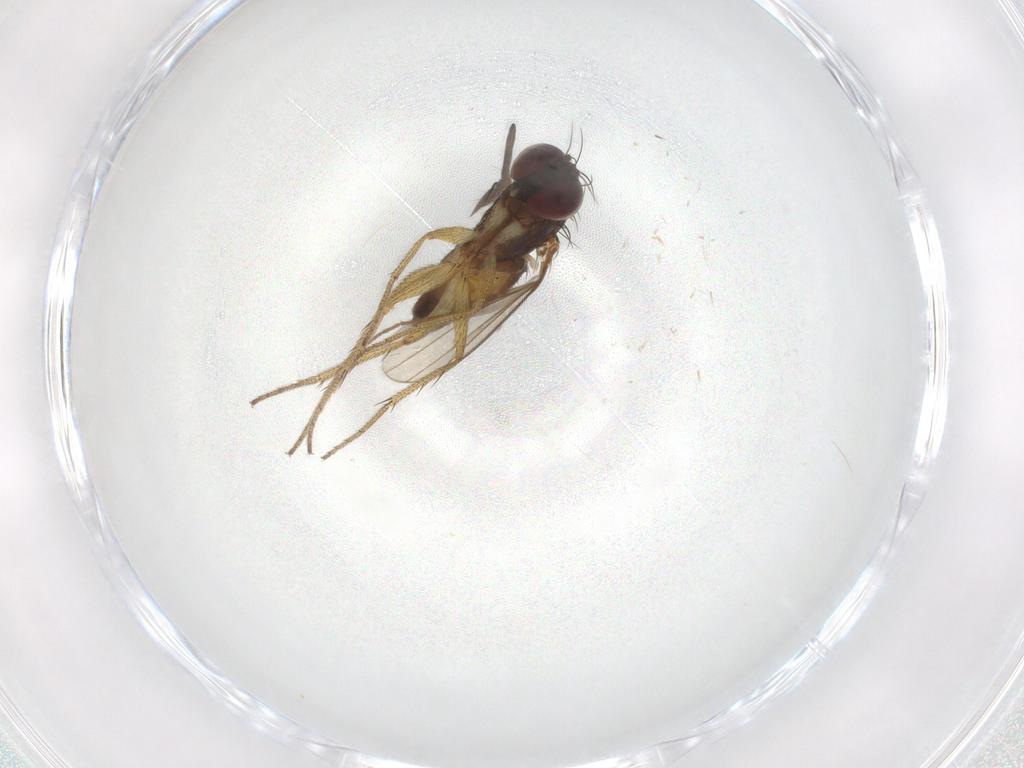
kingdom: Animalia
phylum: Arthropoda
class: Insecta
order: Diptera
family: Dolichopodidae
